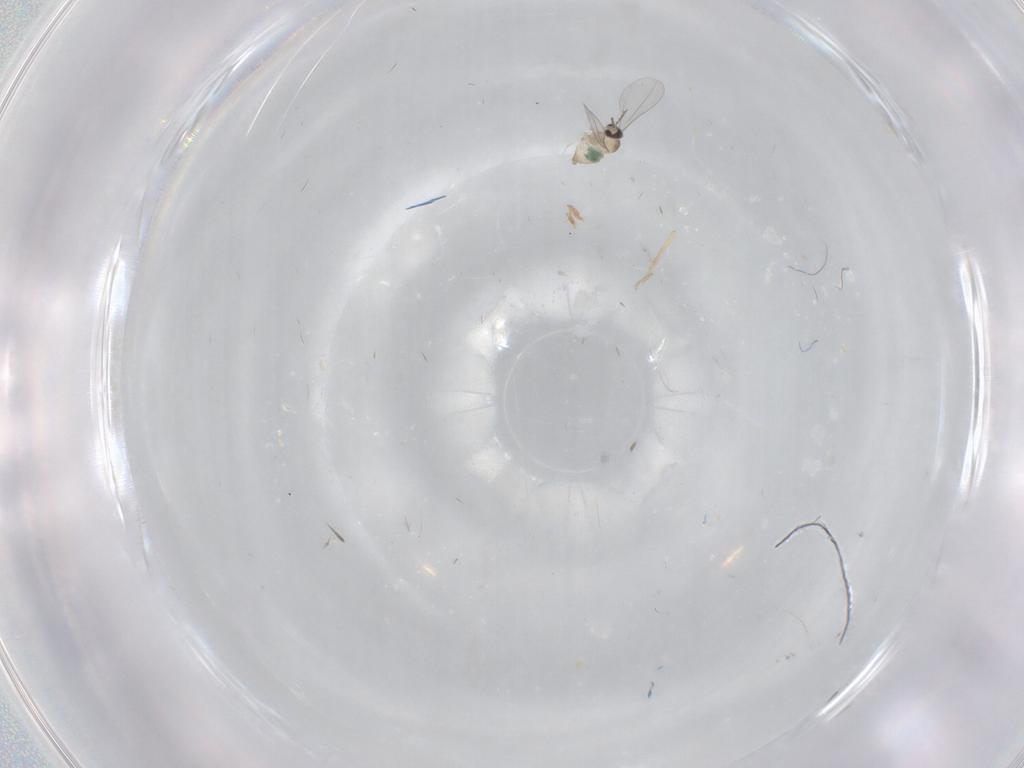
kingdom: Animalia
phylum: Arthropoda
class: Insecta
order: Diptera
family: Cecidomyiidae
